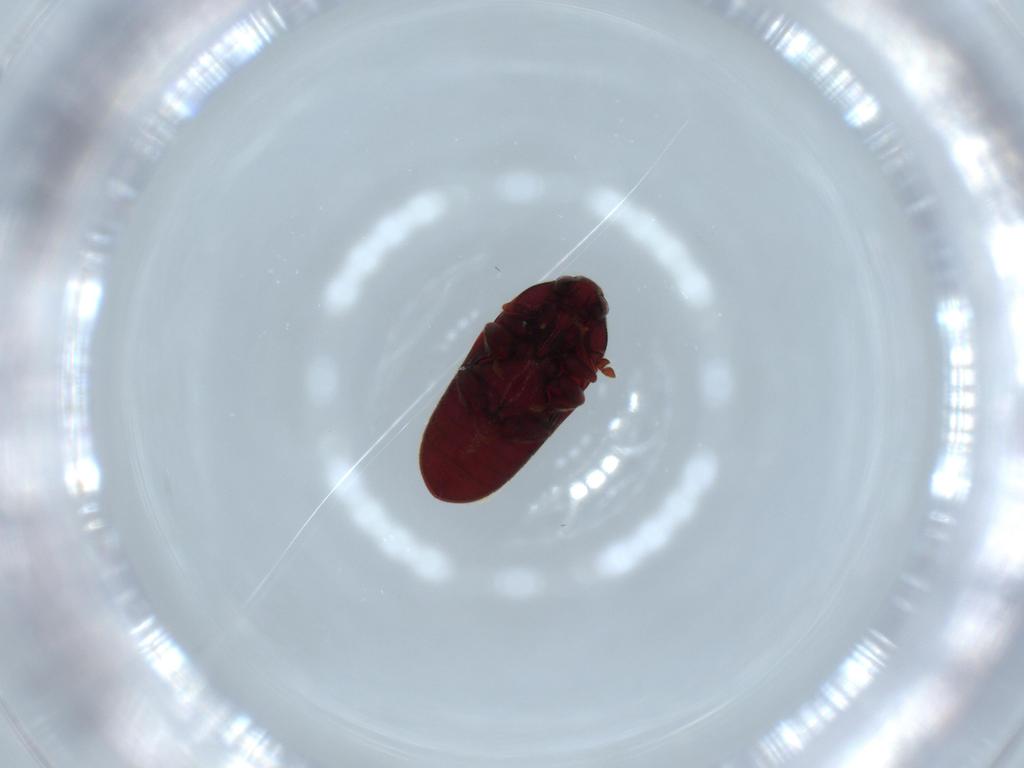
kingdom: Animalia
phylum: Arthropoda
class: Insecta
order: Coleoptera
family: Throscidae
